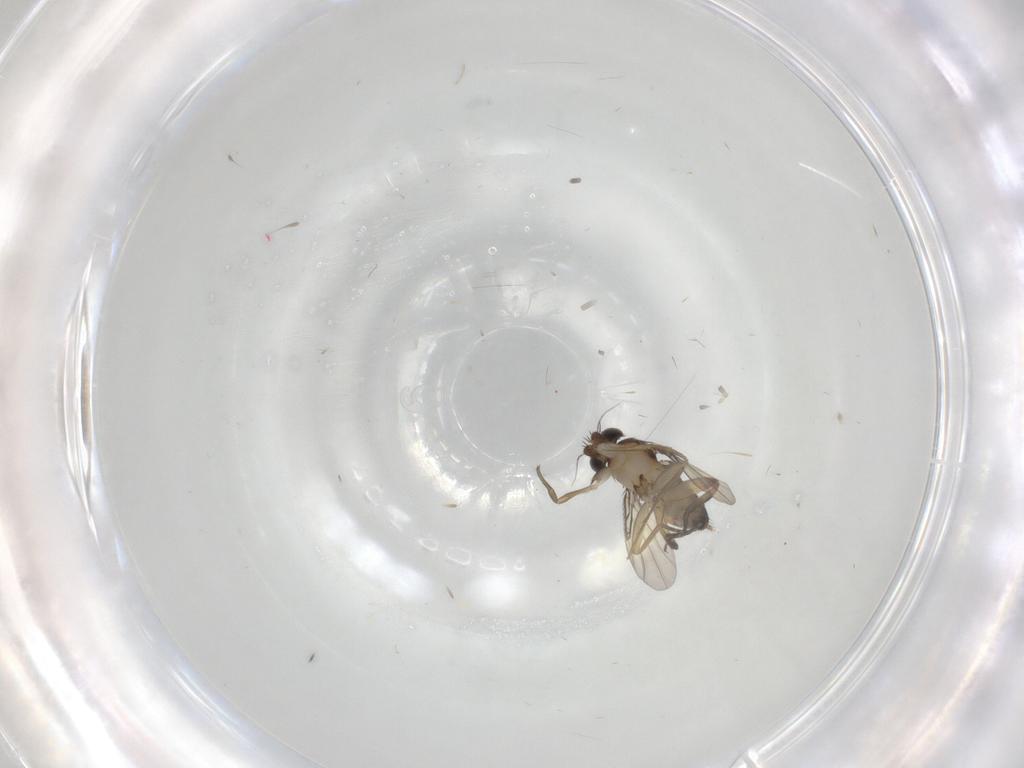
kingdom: Animalia
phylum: Arthropoda
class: Insecta
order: Diptera
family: Phoridae
